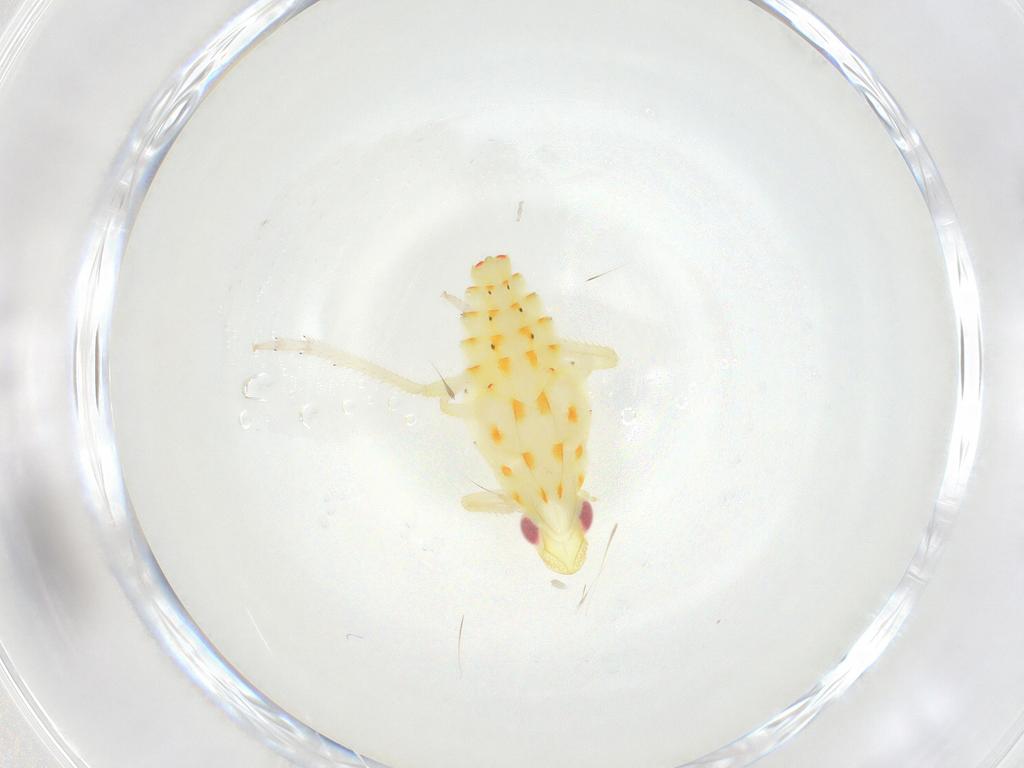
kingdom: Animalia
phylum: Arthropoda
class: Insecta
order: Hemiptera
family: Tropiduchidae
